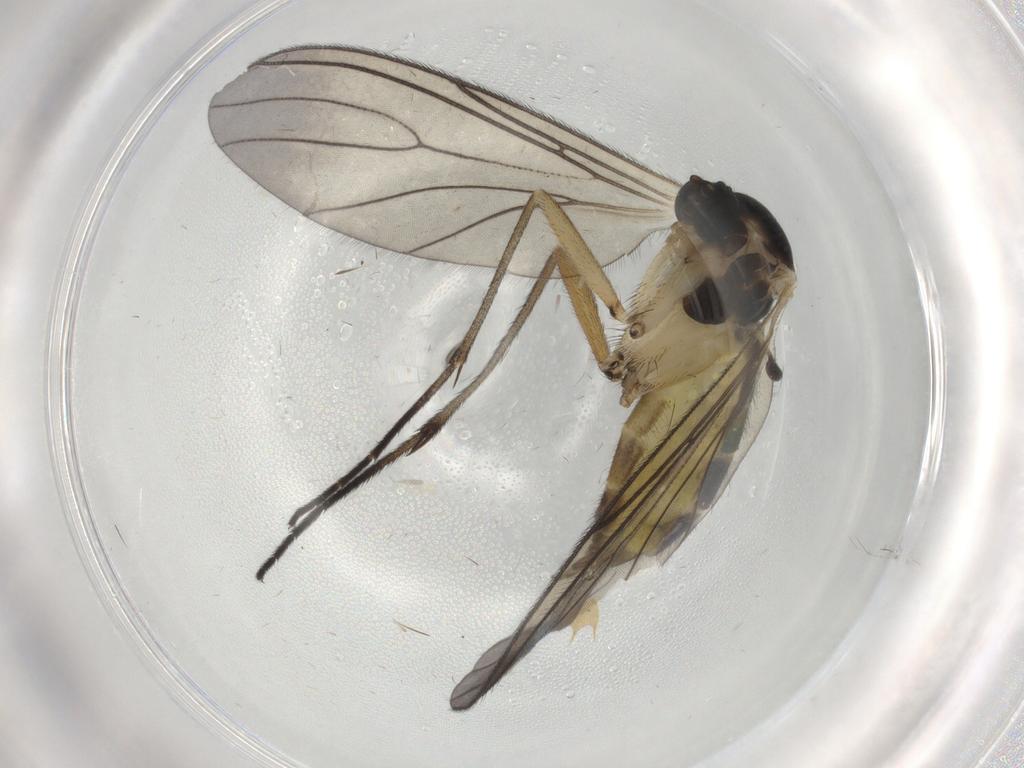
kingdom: Animalia
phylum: Arthropoda
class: Insecta
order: Diptera
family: Sciaridae
